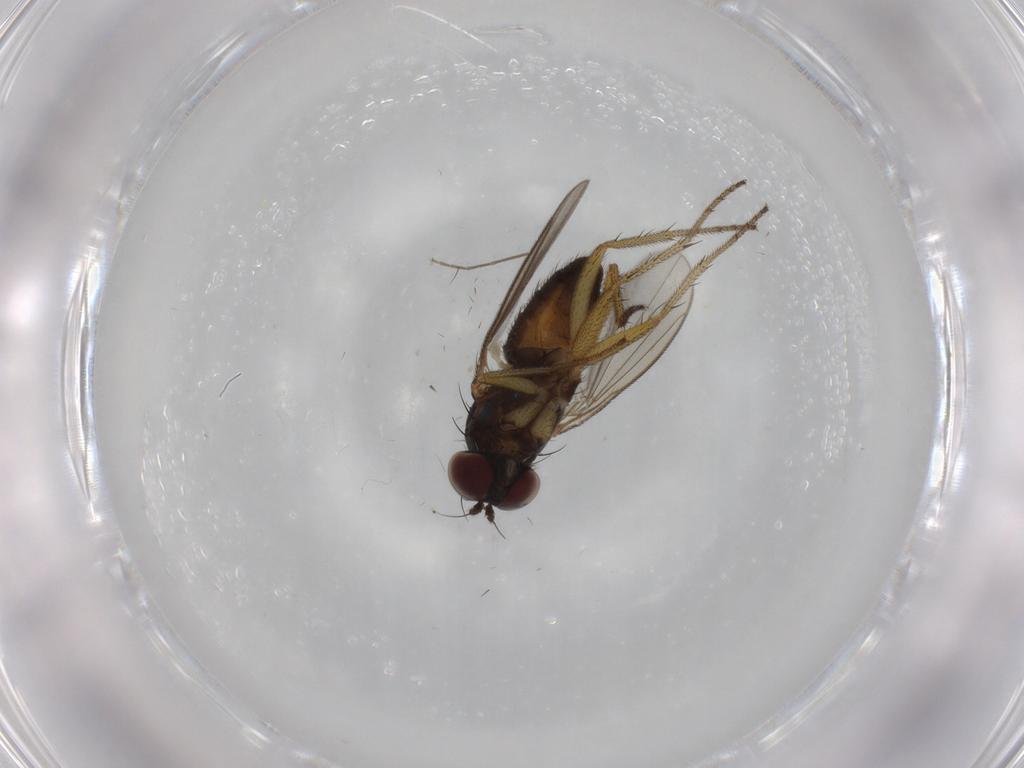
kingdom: Animalia
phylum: Arthropoda
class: Insecta
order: Diptera
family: Dolichopodidae
